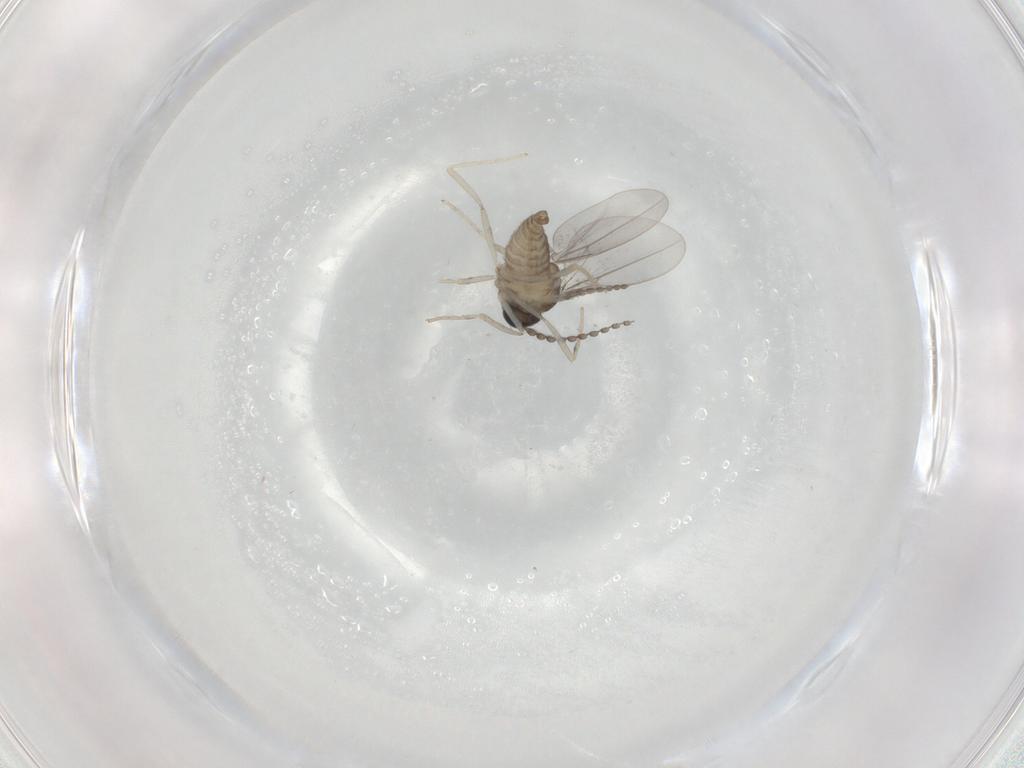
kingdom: Animalia
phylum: Arthropoda
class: Insecta
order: Diptera
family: Cecidomyiidae
